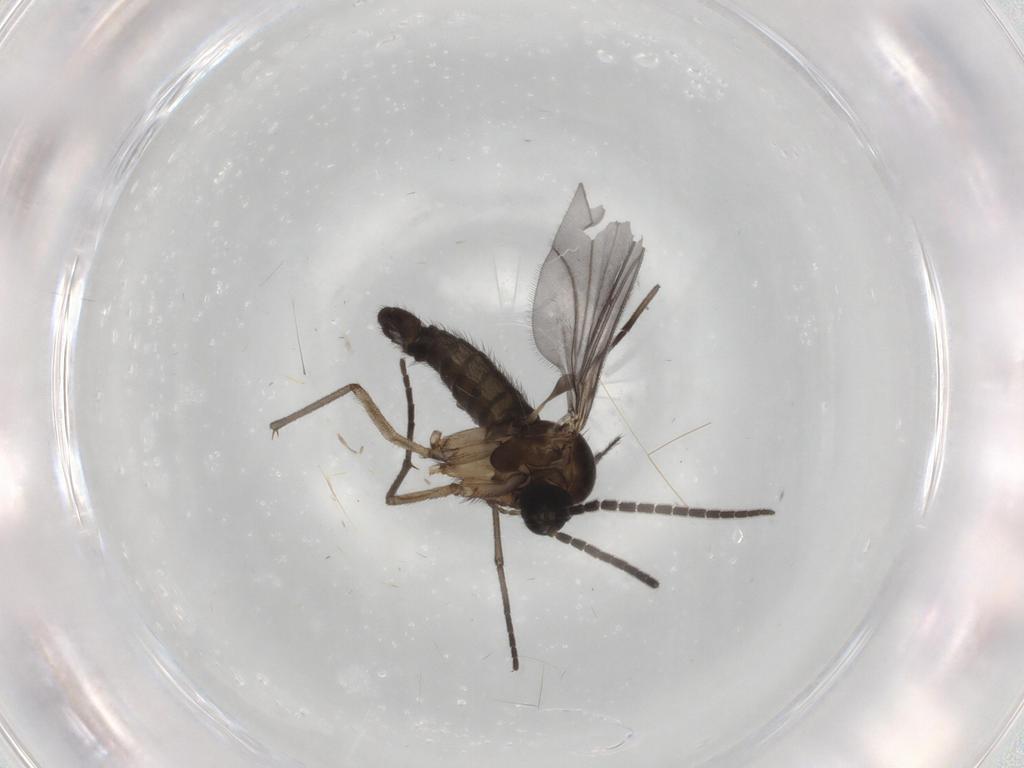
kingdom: Animalia
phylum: Arthropoda
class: Insecta
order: Diptera
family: Sciaridae
